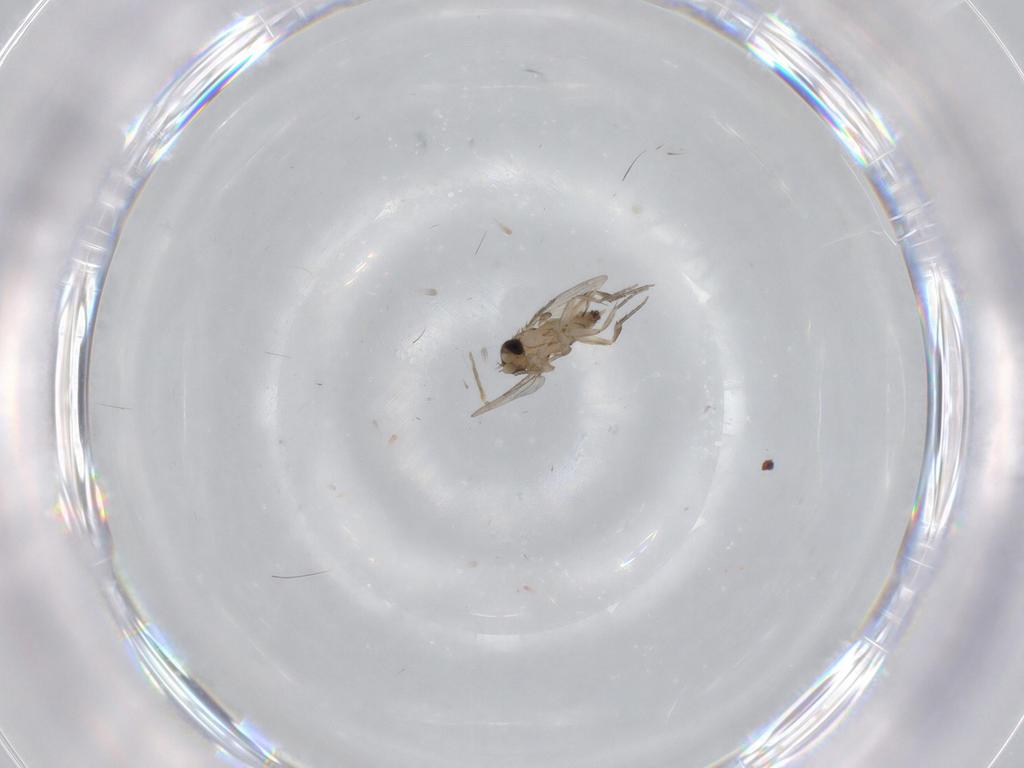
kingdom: Animalia
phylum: Arthropoda
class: Insecta
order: Diptera
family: Phoridae
